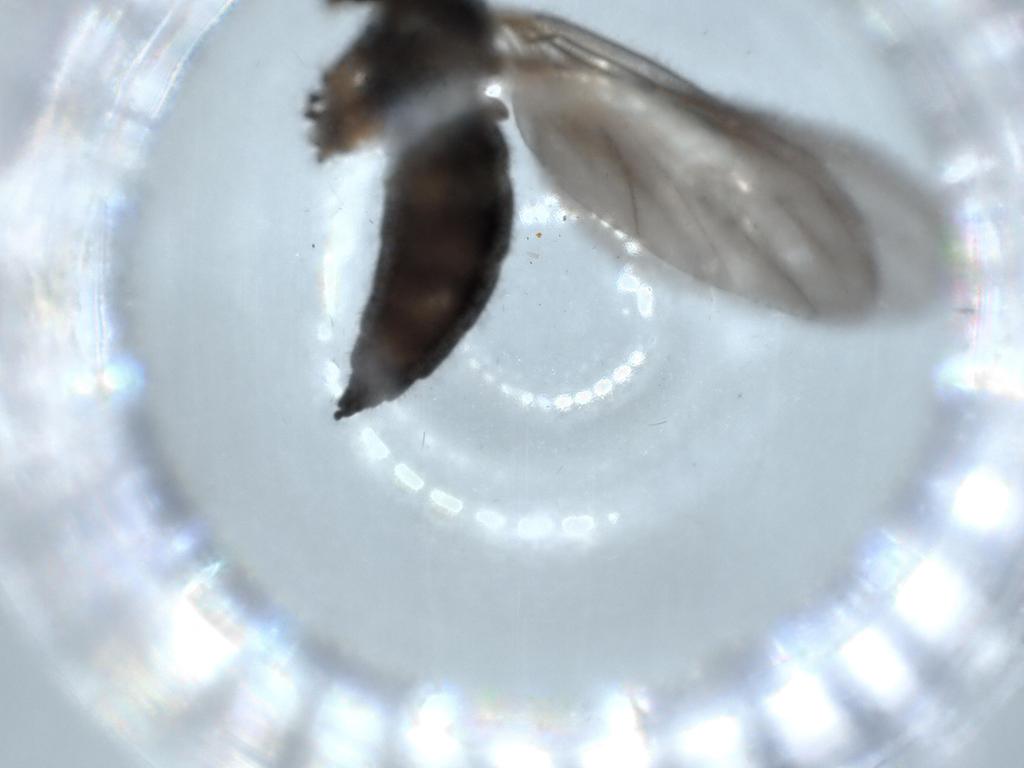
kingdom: Animalia
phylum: Arthropoda
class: Insecta
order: Diptera
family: Sciaridae
